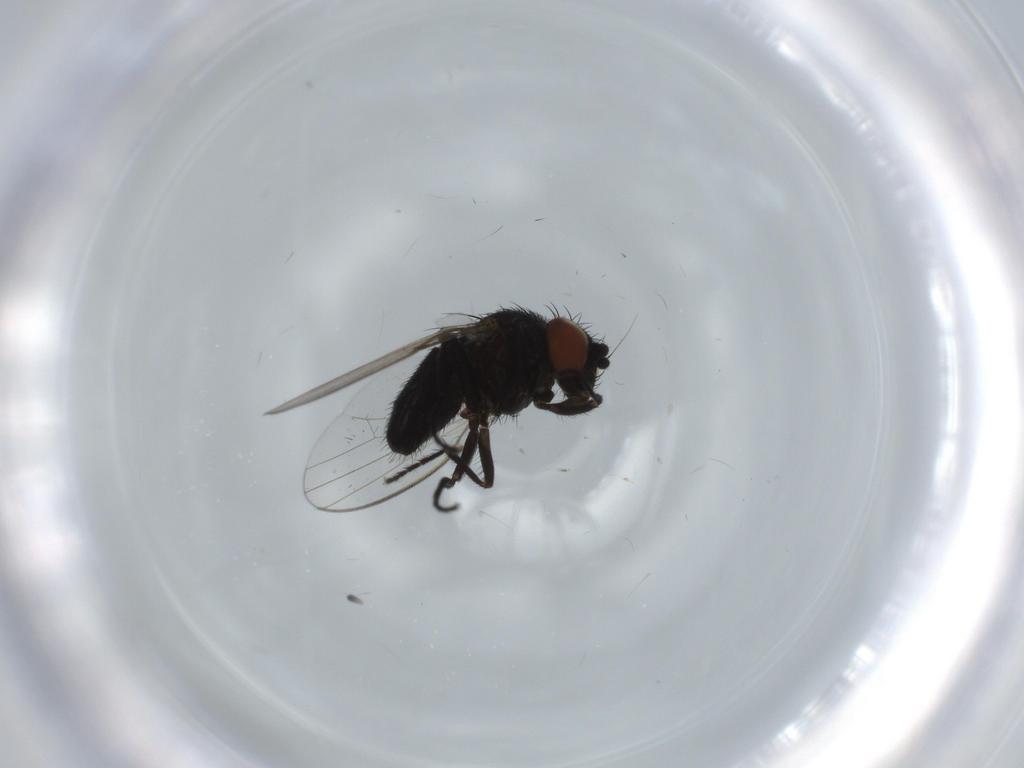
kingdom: Animalia
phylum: Arthropoda
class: Insecta
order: Diptera
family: Milichiidae
